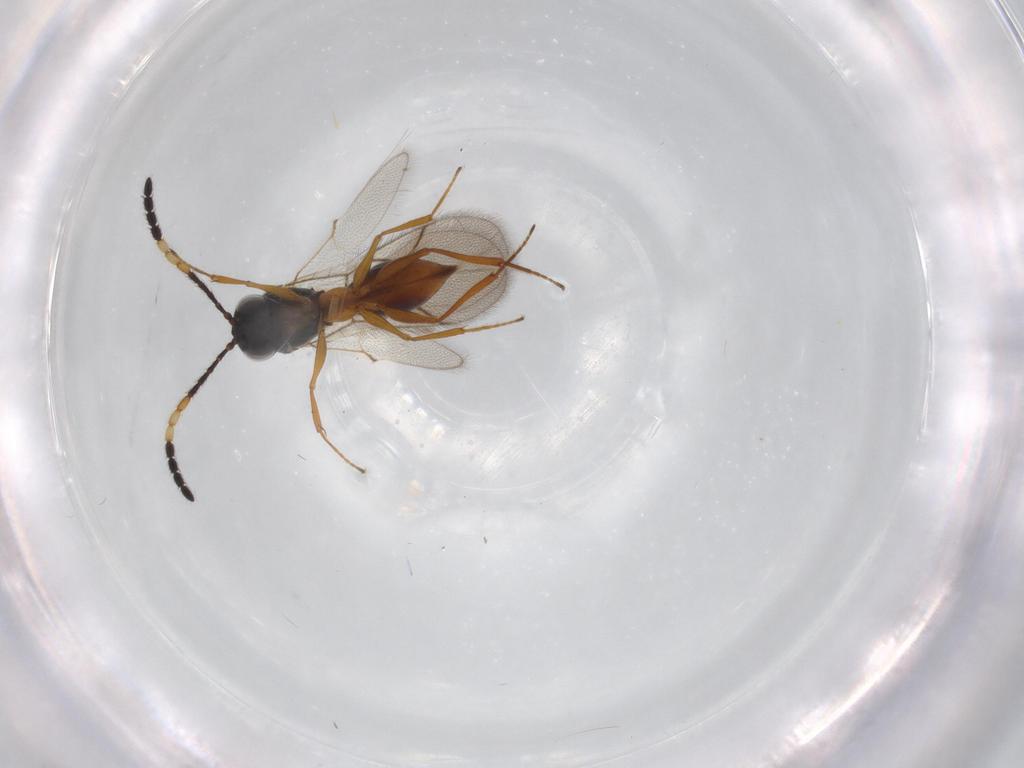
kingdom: Animalia
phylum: Arthropoda
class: Insecta
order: Hymenoptera
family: Figitidae
